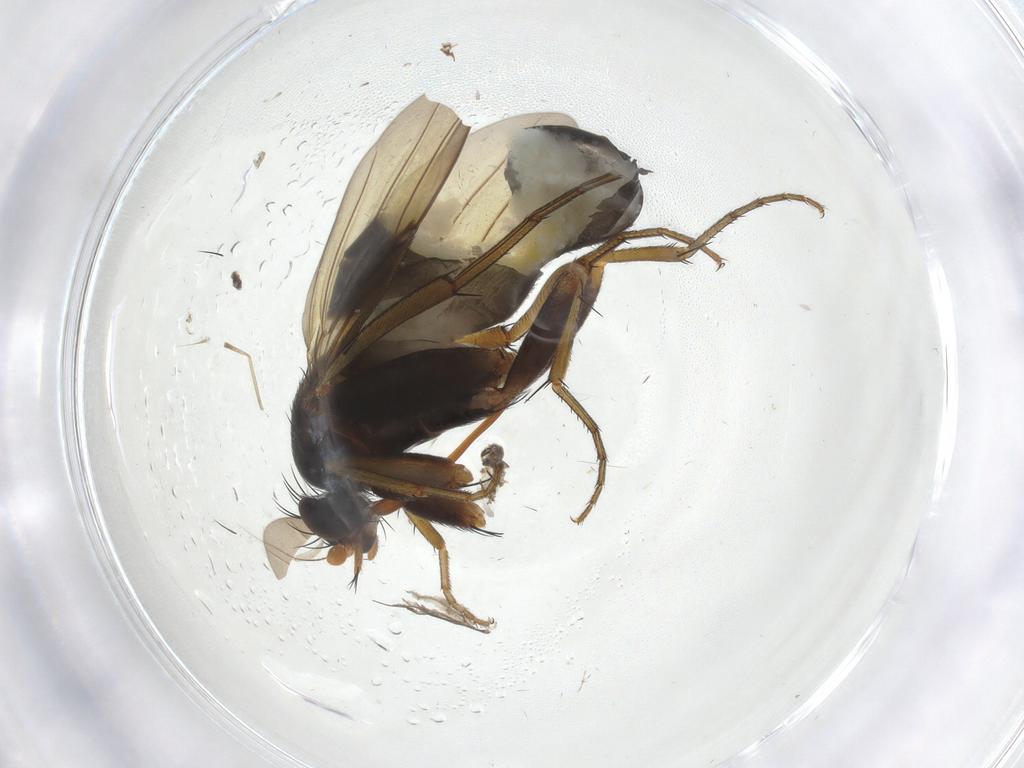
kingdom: Animalia
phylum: Arthropoda
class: Insecta
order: Diptera
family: Phoridae
